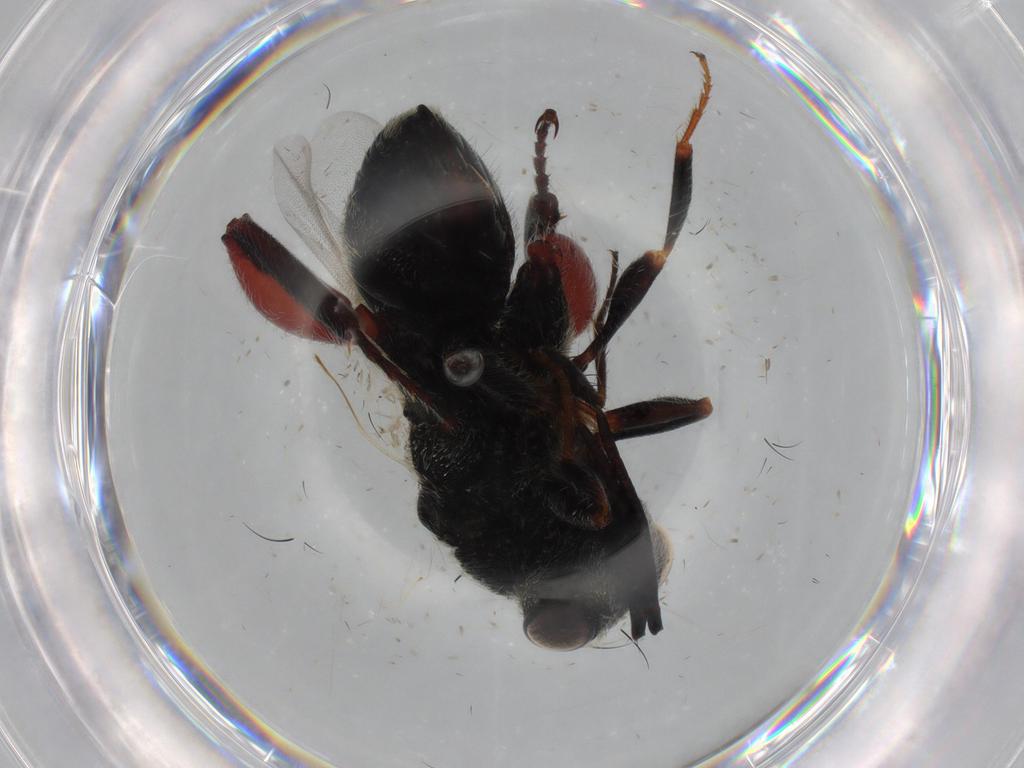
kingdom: Animalia
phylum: Arthropoda
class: Insecta
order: Hymenoptera
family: Chalcididae
